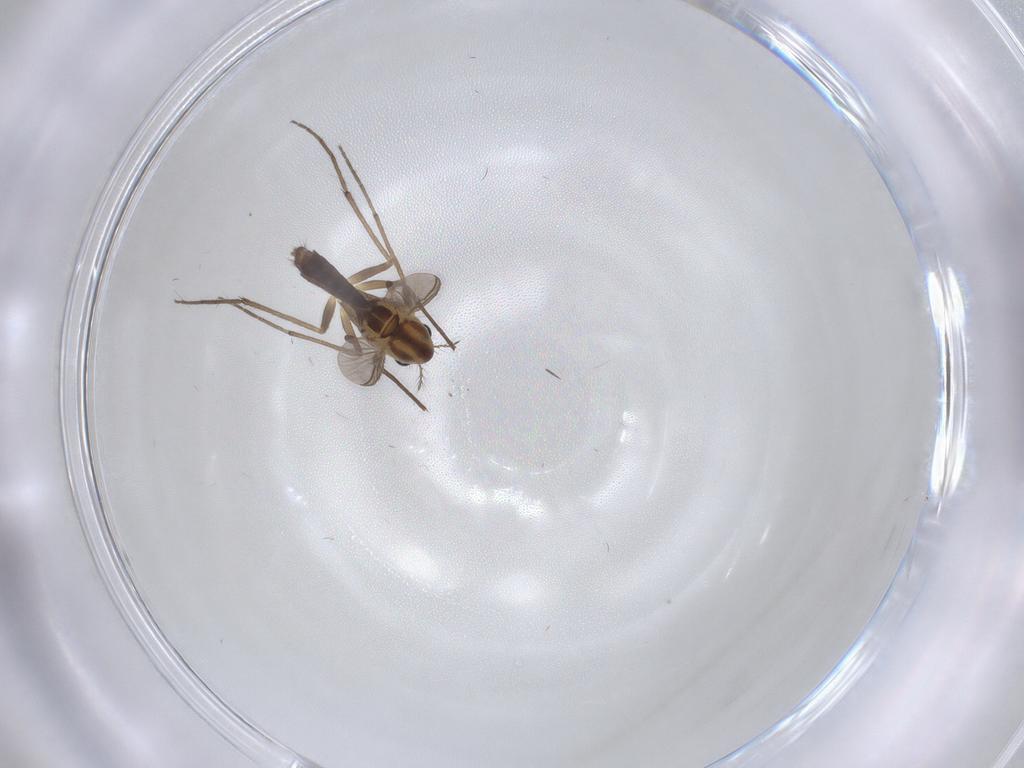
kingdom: Animalia
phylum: Arthropoda
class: Insecta
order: Diptera
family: Chironomidae
